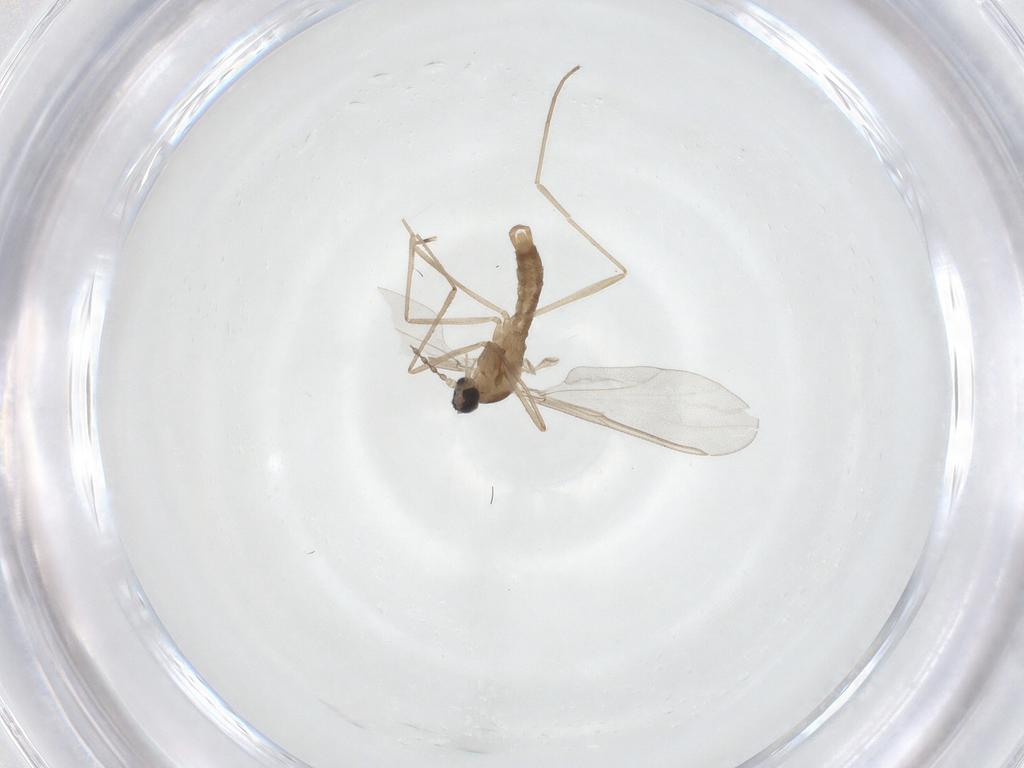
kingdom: Animalia
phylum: Arthropoda
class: Insecta
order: Diptera
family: Cecidomyiidae
